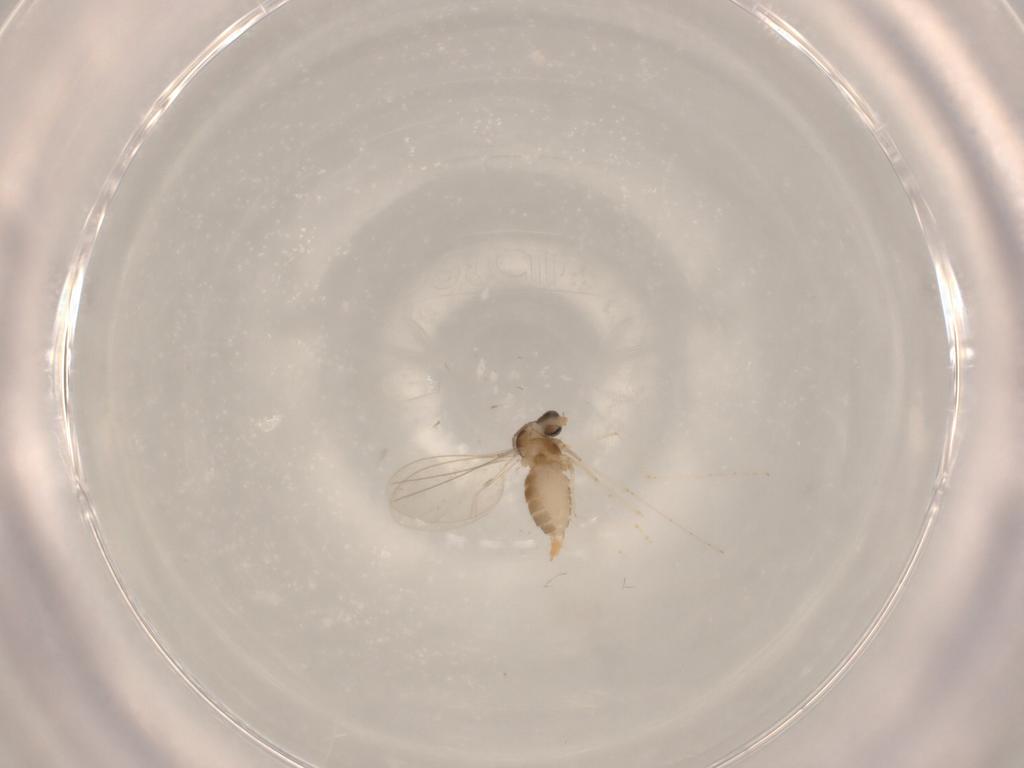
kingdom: Animalia
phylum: Arthropoda
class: Insecta
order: Diptera
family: Cecidomyiidae
